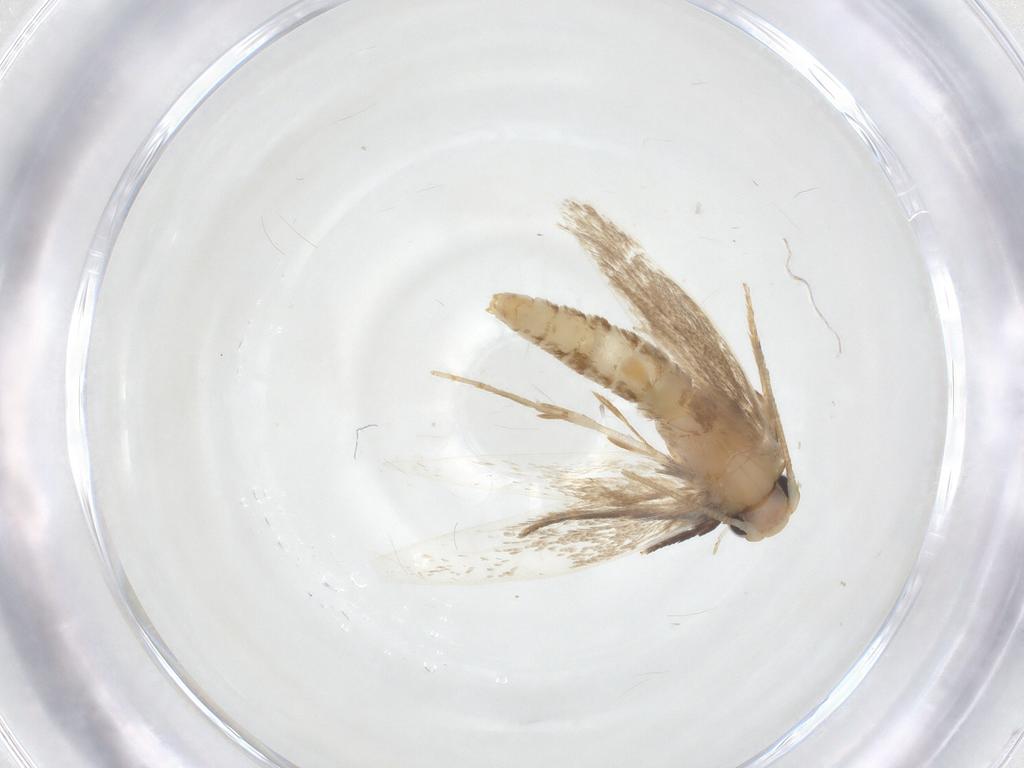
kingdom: Animalia
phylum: Arthropoda
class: Insecta
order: Lepidoptera
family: Tineidae
